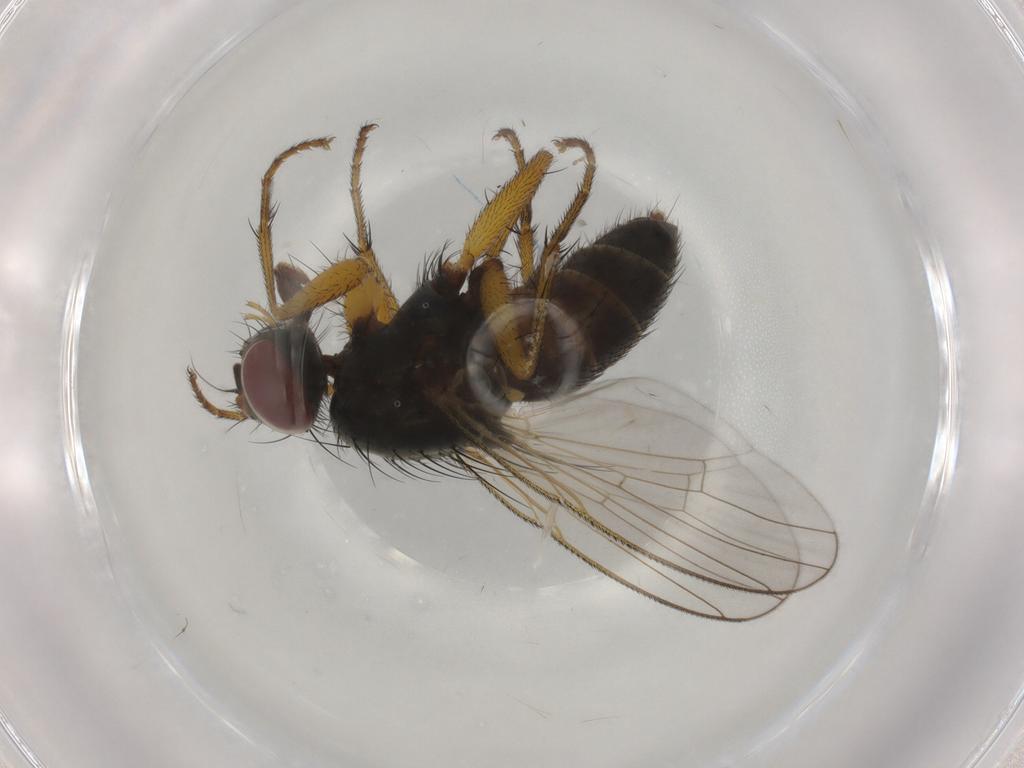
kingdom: Animalia
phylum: Arthropoda
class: Insecta
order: Diptera
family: Muscidae
